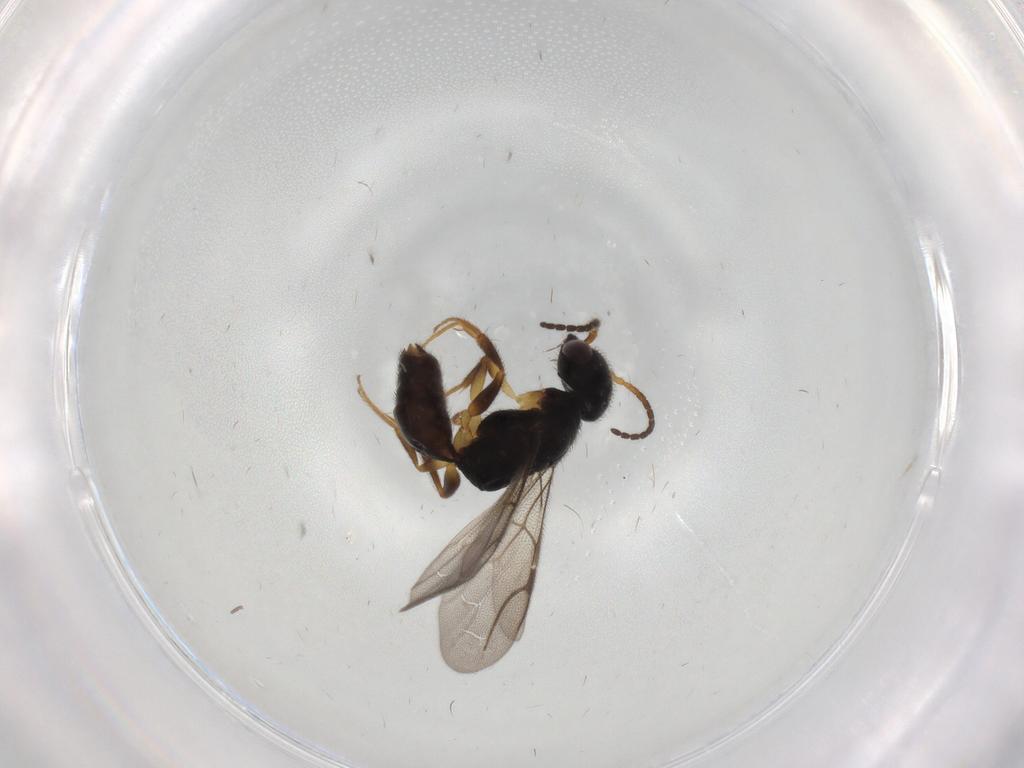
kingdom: Animalia
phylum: Arthropoda
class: Insecta
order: Hymenoptera
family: Bethylidae
